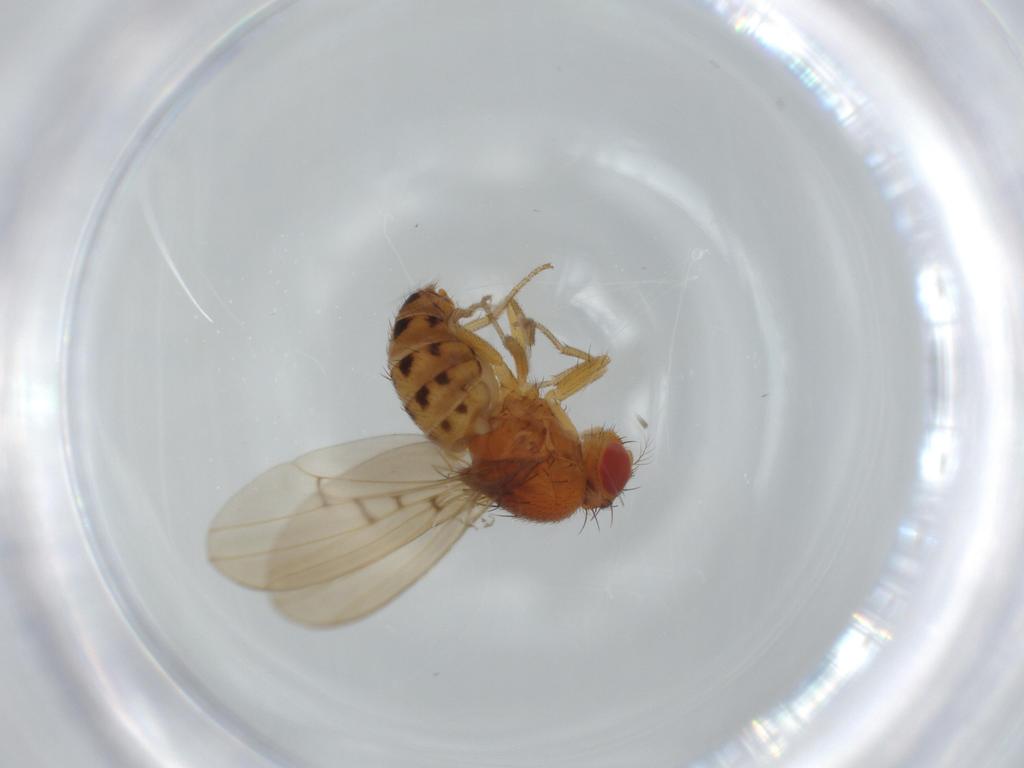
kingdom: Animalia
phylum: Arthropoda
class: Insecta
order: Diptera
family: Drosophilidae
